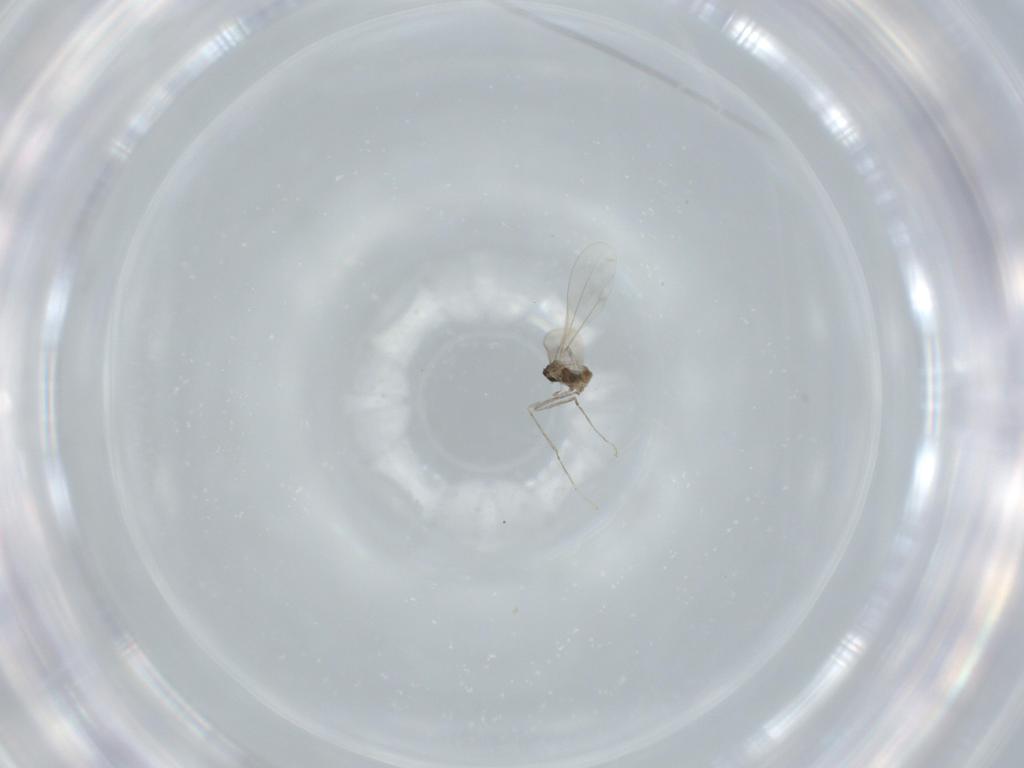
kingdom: Animalia
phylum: Arthropoda
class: Insecta
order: Diptera
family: Cecidomyiidae
